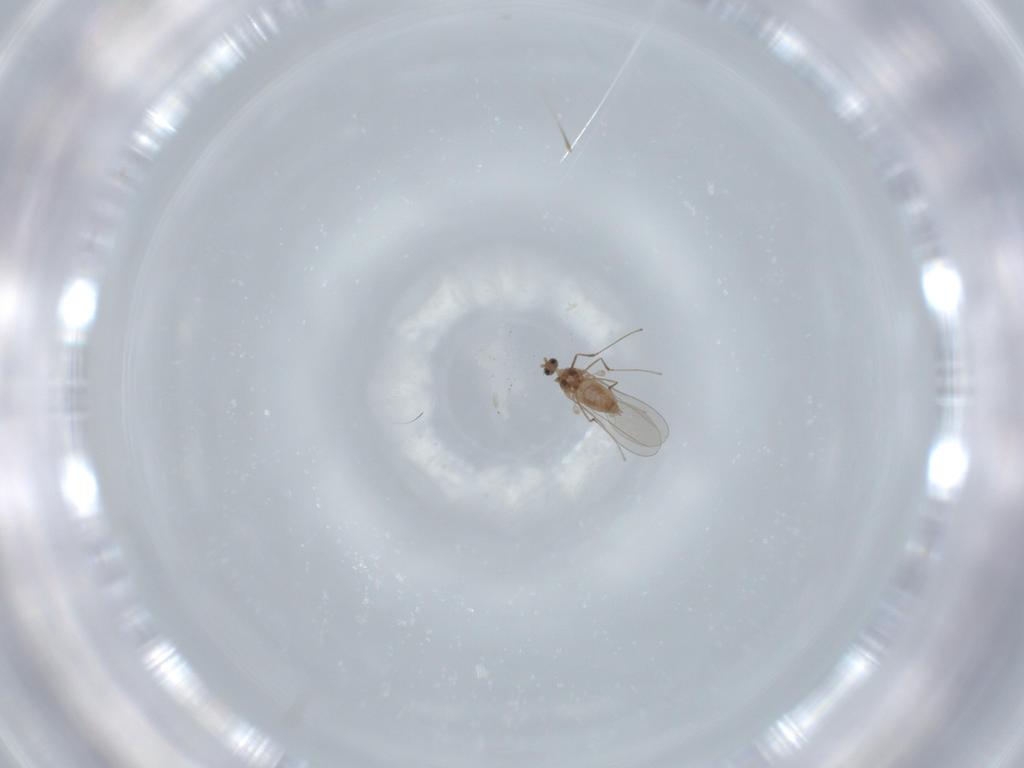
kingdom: Animalia
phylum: Arthropoda
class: Insecta
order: Diptera
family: Cecidomyiidae
